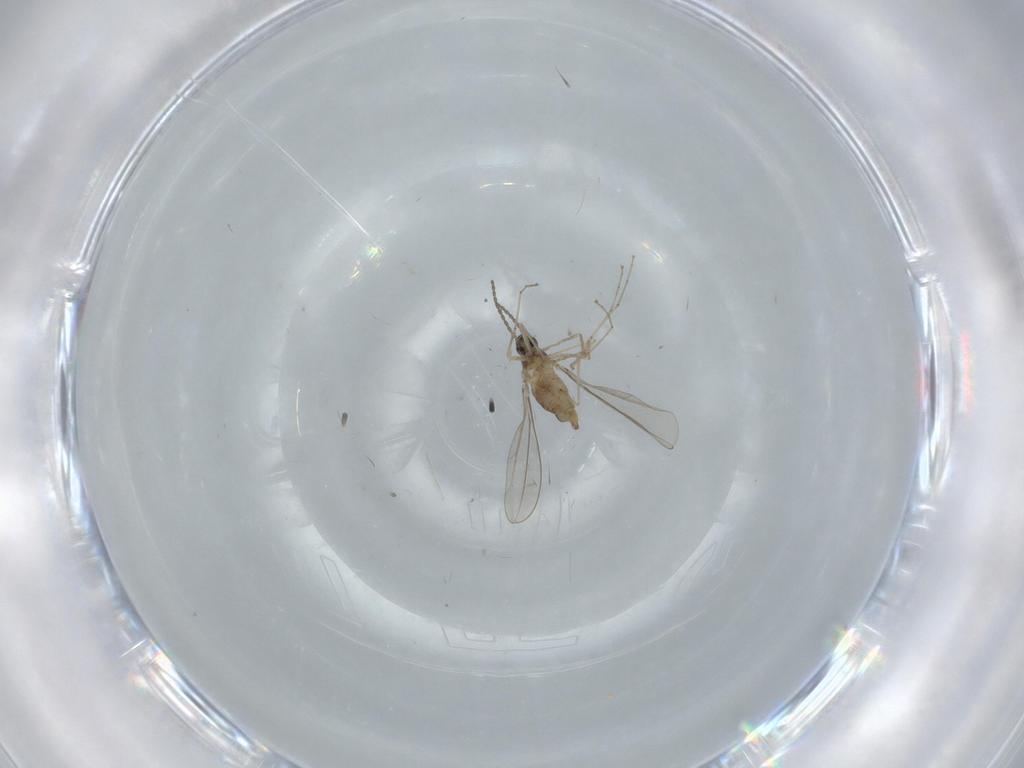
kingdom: Animalia
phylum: Arthropoda
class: Insecta
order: Diptera
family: Cecidomyiidae
